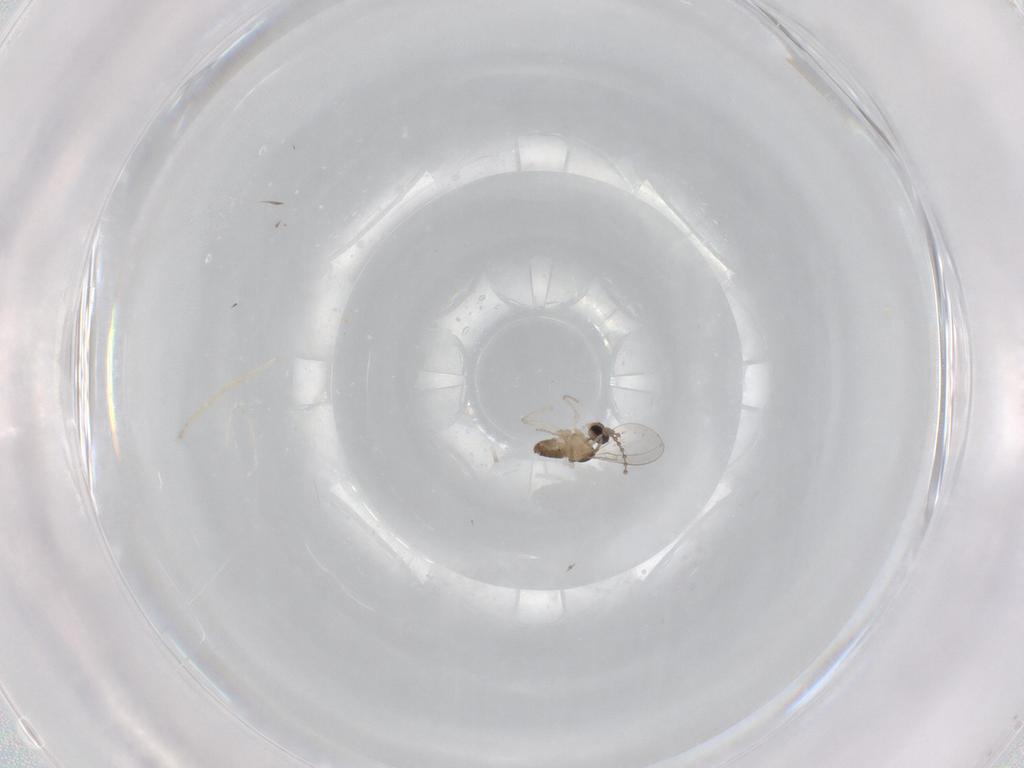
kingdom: Animalia
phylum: Arthropoda
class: Insecta
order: Diptera
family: Cecidomyiidae
